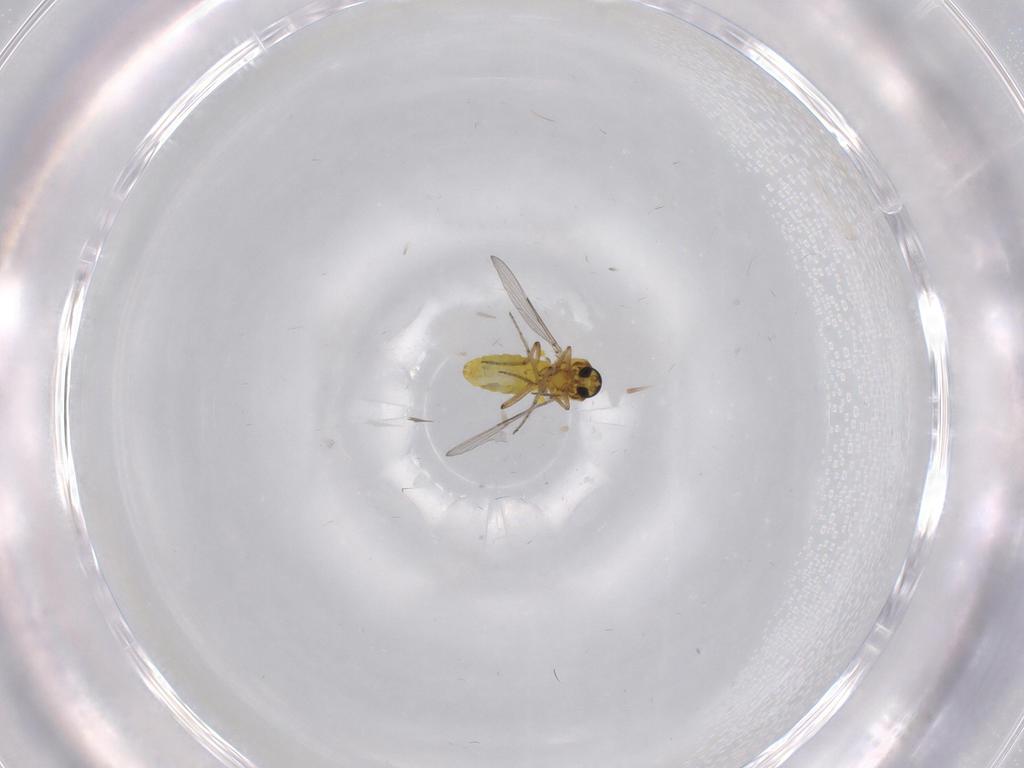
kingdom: Animalia
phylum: Arthropoda
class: Insecta
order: Diptera
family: Ceratopogonidae
